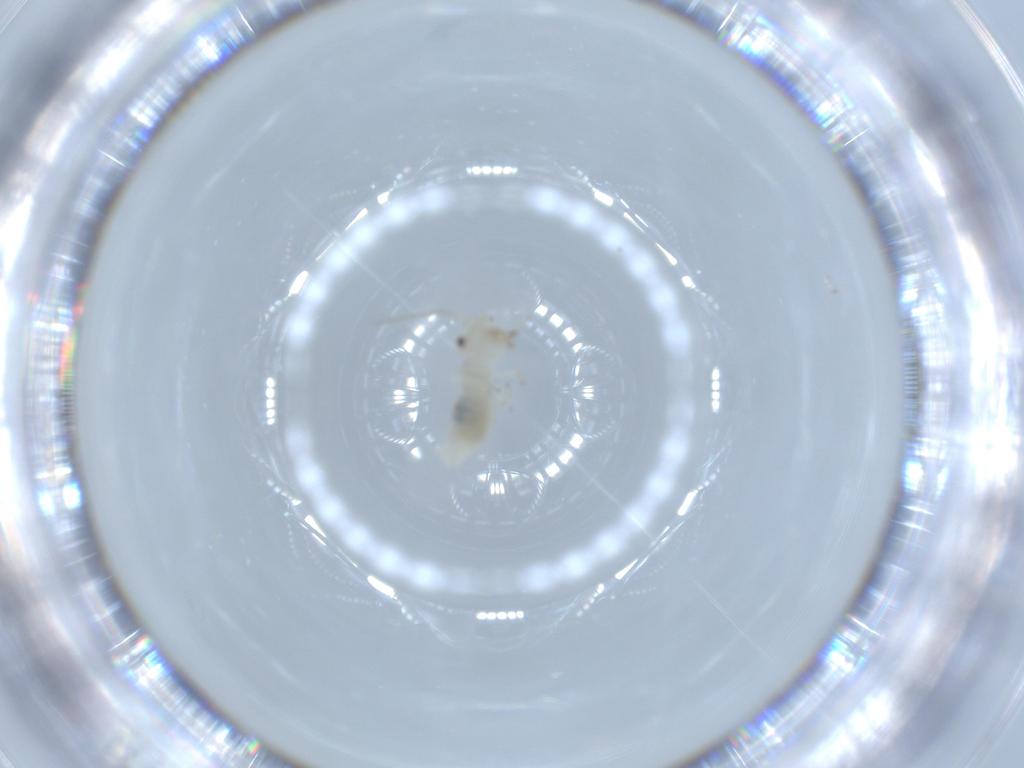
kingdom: Animalia
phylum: Arthropoda
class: Insecta
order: Psocodea
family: Caeciliusidae
